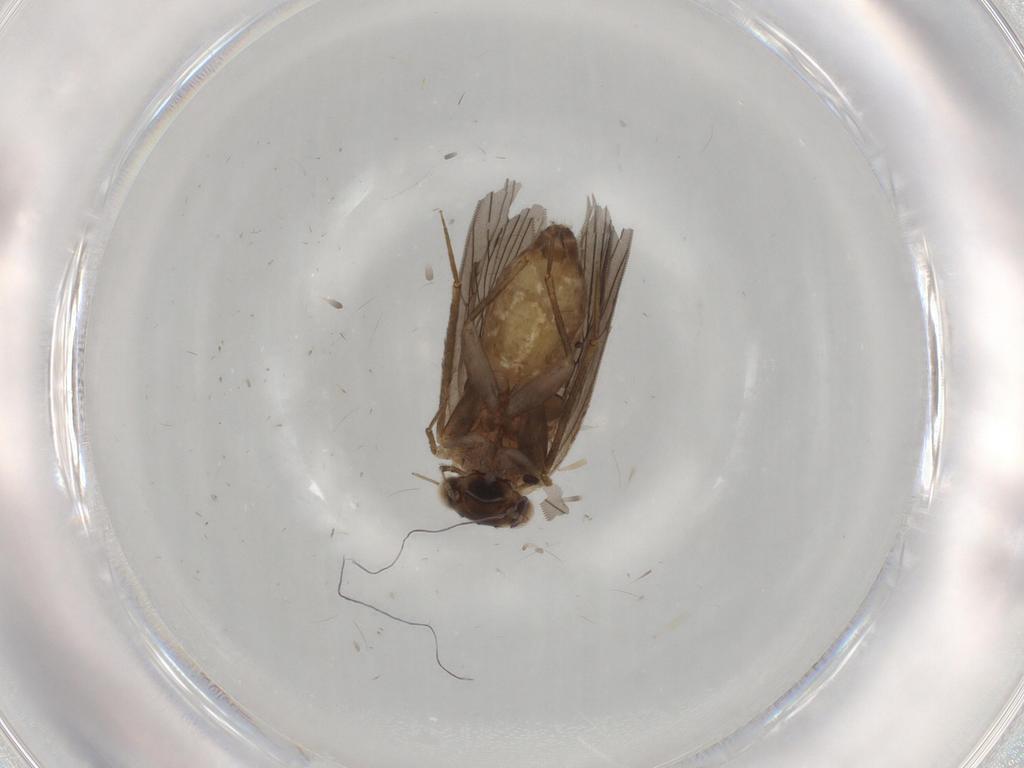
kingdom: Animalia
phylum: Arthropoda
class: Insecta
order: Psocodea
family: Lepidopsocidae
